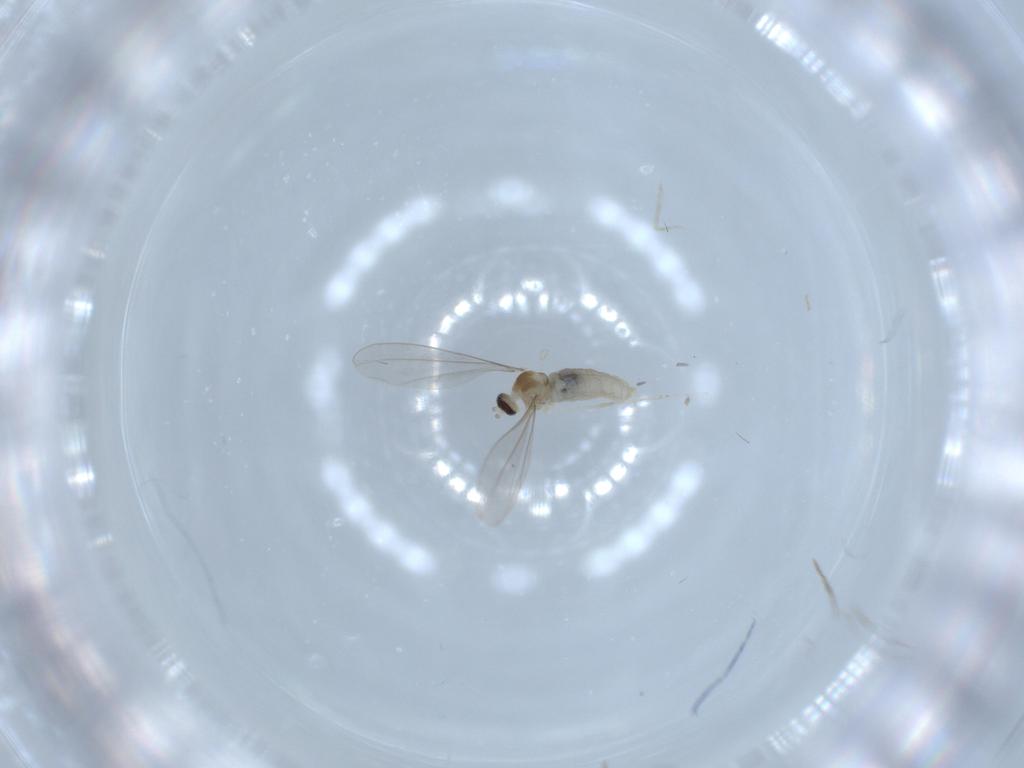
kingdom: Animalia
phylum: Arthropoda
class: Insecta
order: Diptera
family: Cecidomyiidae
